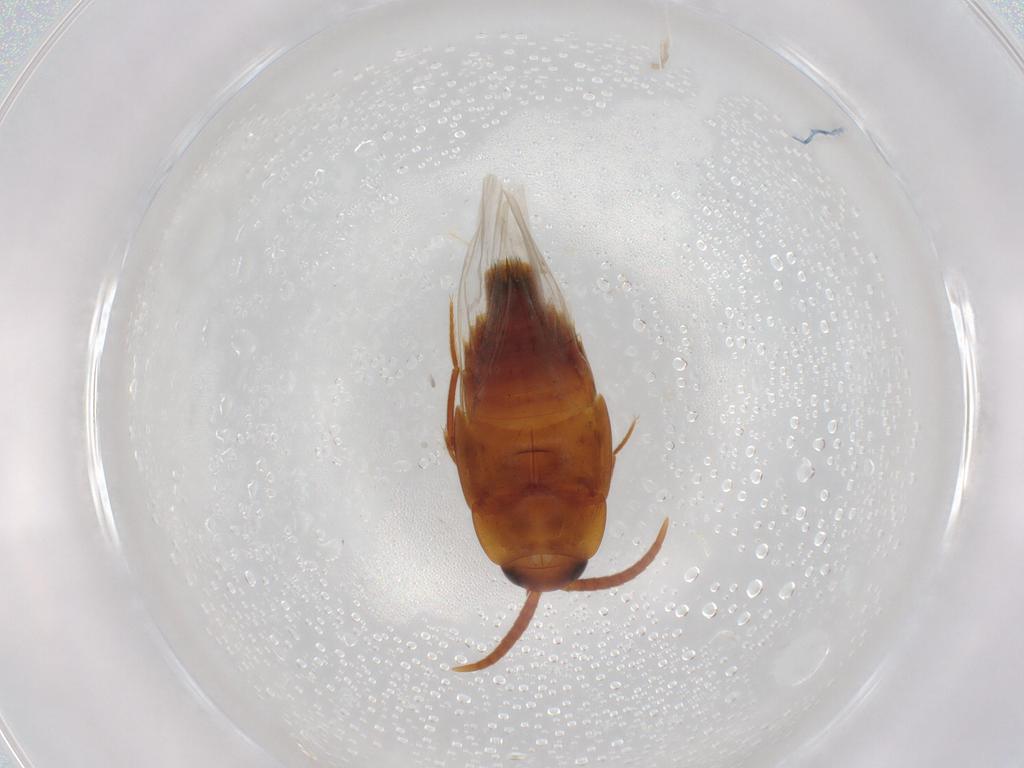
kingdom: Animalia
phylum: Arthropoda
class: Insecta
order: Coleoptera
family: Staphylinidae
